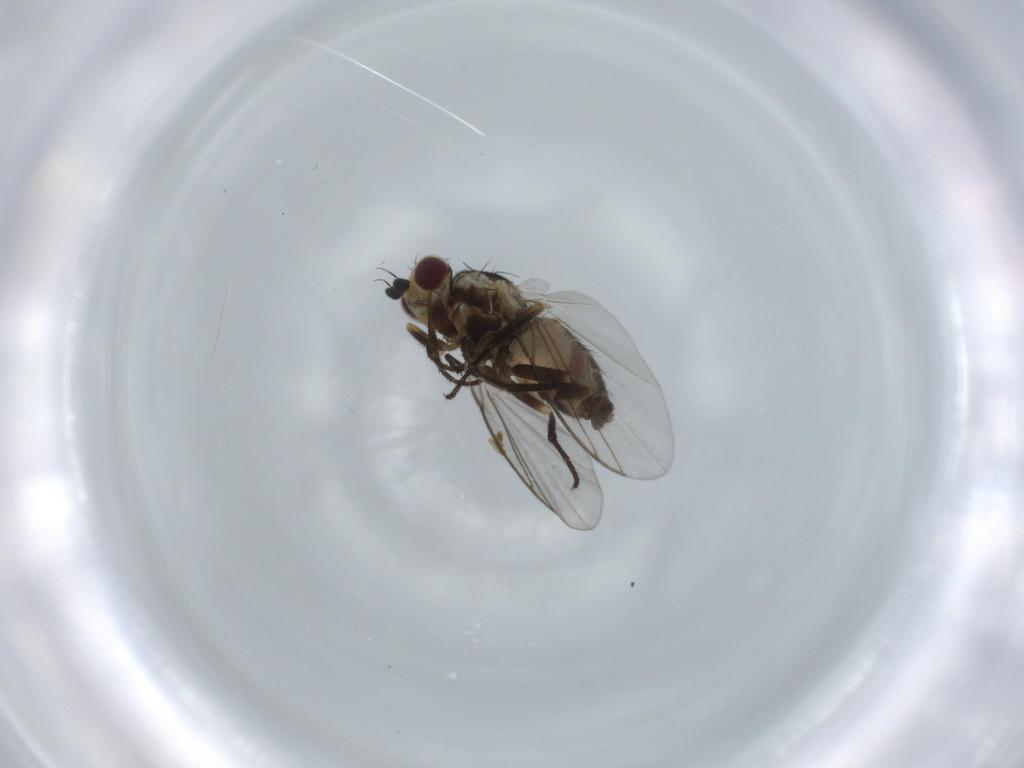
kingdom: Animalia
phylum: Arthropoda
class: Insecta
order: Diptera
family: Agromyzidae
